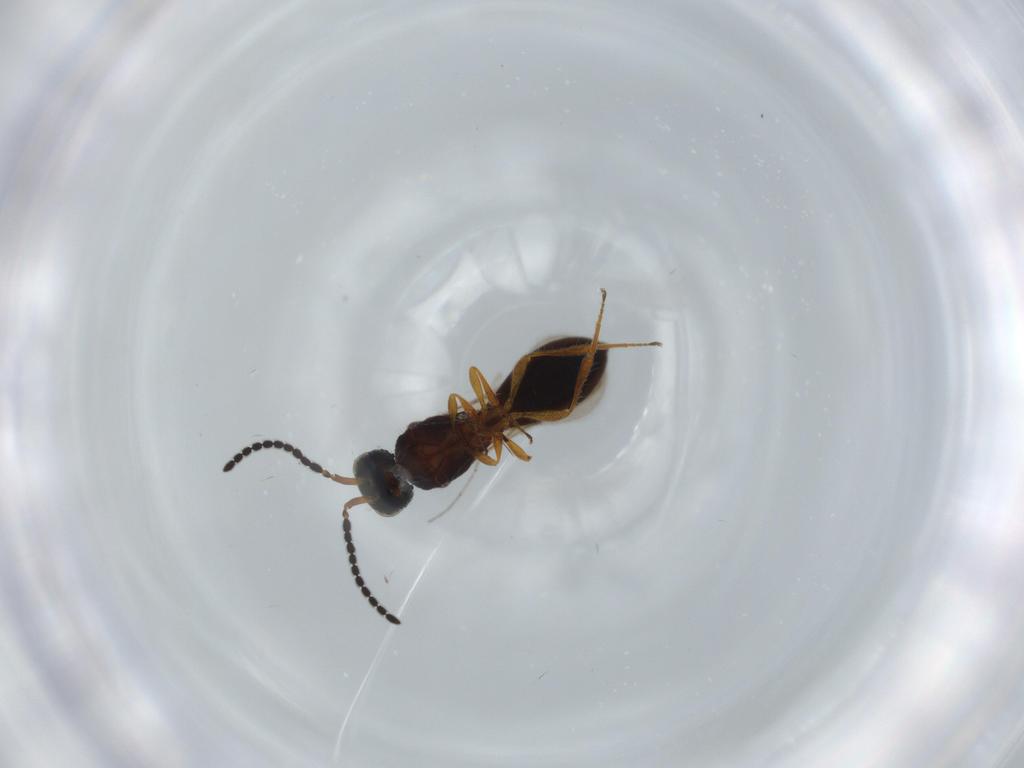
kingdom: Animalia
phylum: Arthropoda
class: Insecta
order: Hymenoptera
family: Scelionidae
